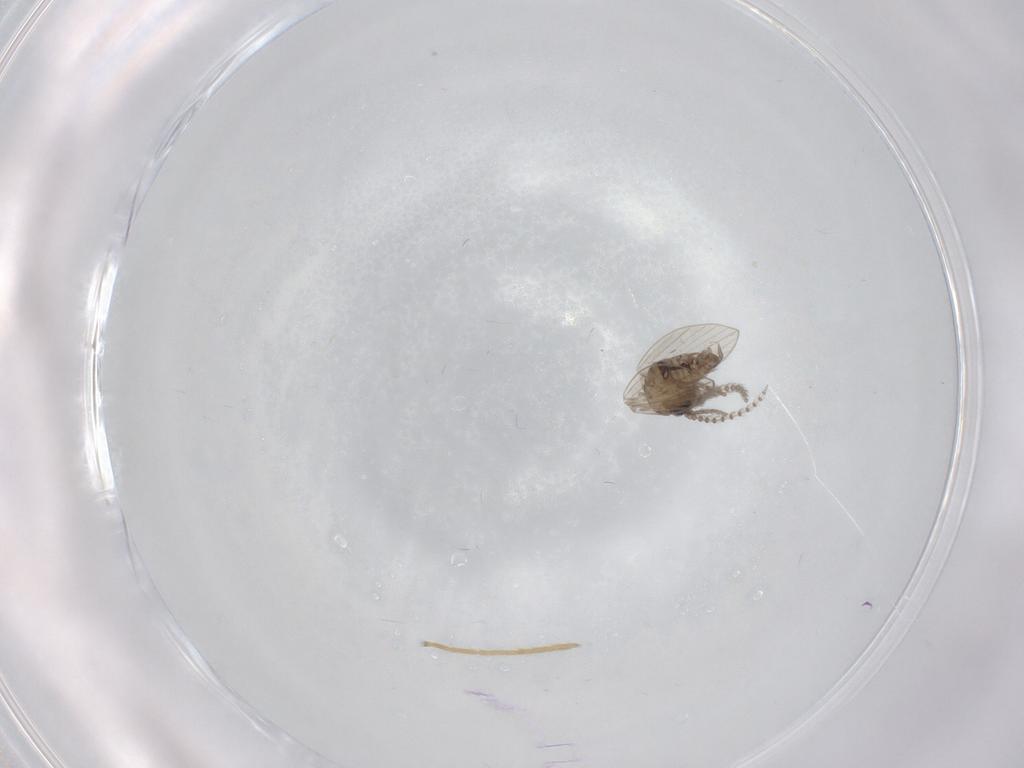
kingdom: Animalia
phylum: Arthropoda
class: Insecta
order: Diptera
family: Psychodidae
